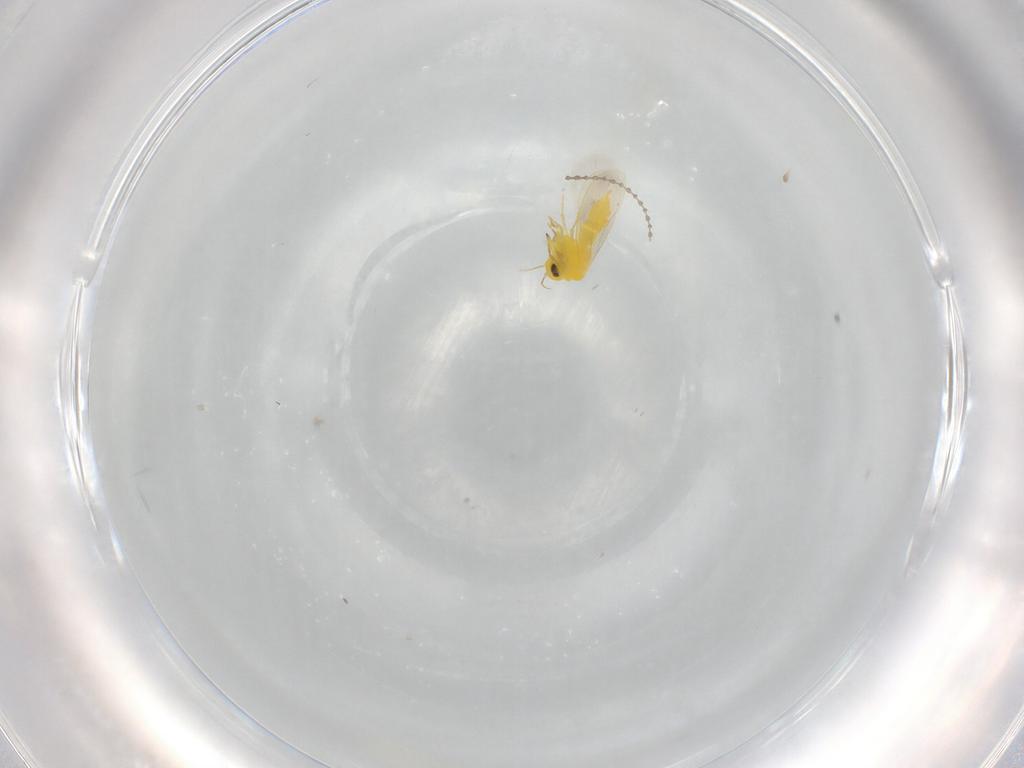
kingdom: Animalia
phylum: Arthropoda
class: Insecta
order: Hemiptera
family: Aleyrodidae
